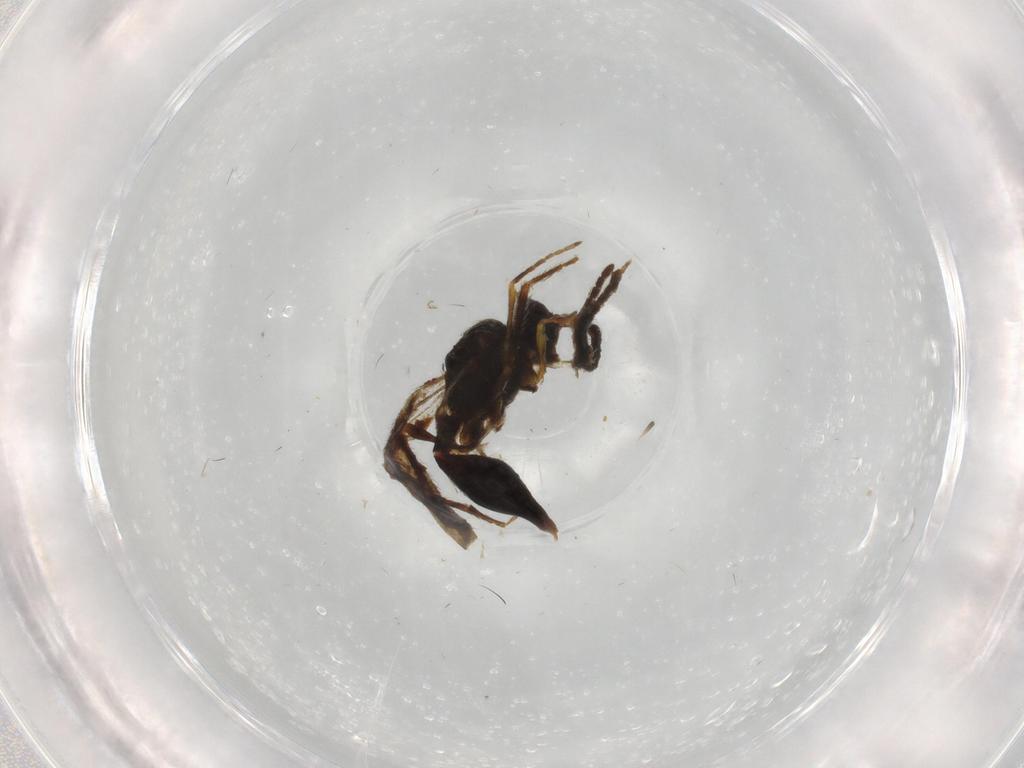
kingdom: Animalia
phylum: Arthropoda
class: Insecta
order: Hymenoptera
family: Diapriidae
